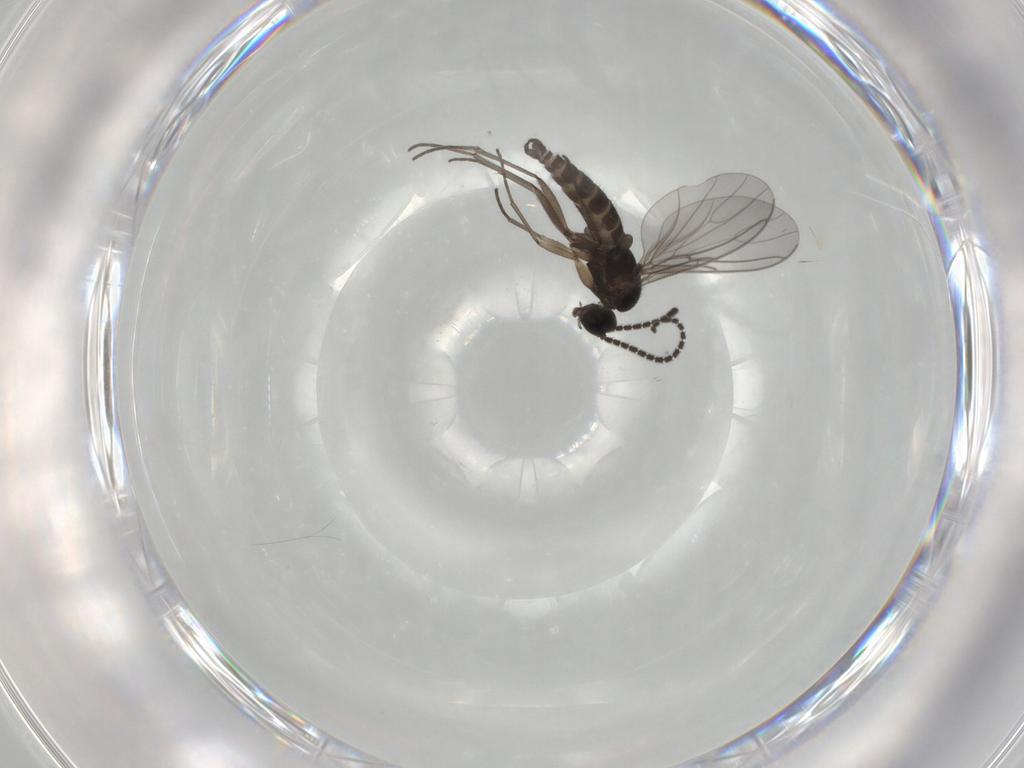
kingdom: Animalia
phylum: Arthropoda
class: Insecta
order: Diptera
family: Sciaridae
